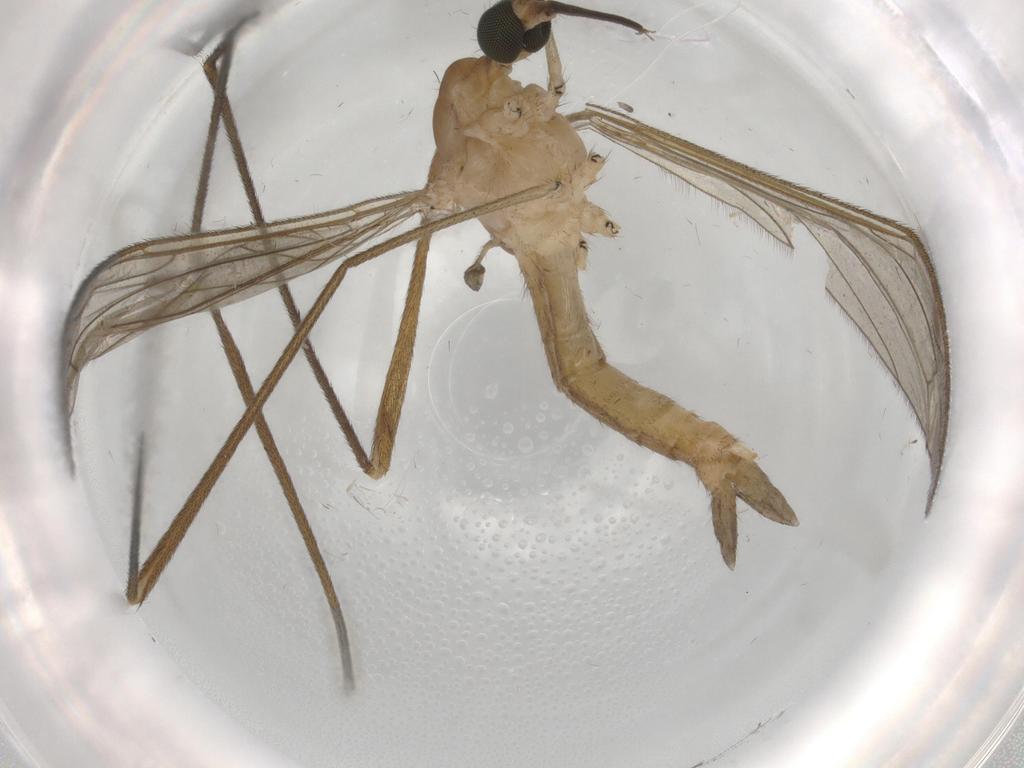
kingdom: Animalia
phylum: Arthropoda
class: Insecta
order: Diptera
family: Limoniidae
